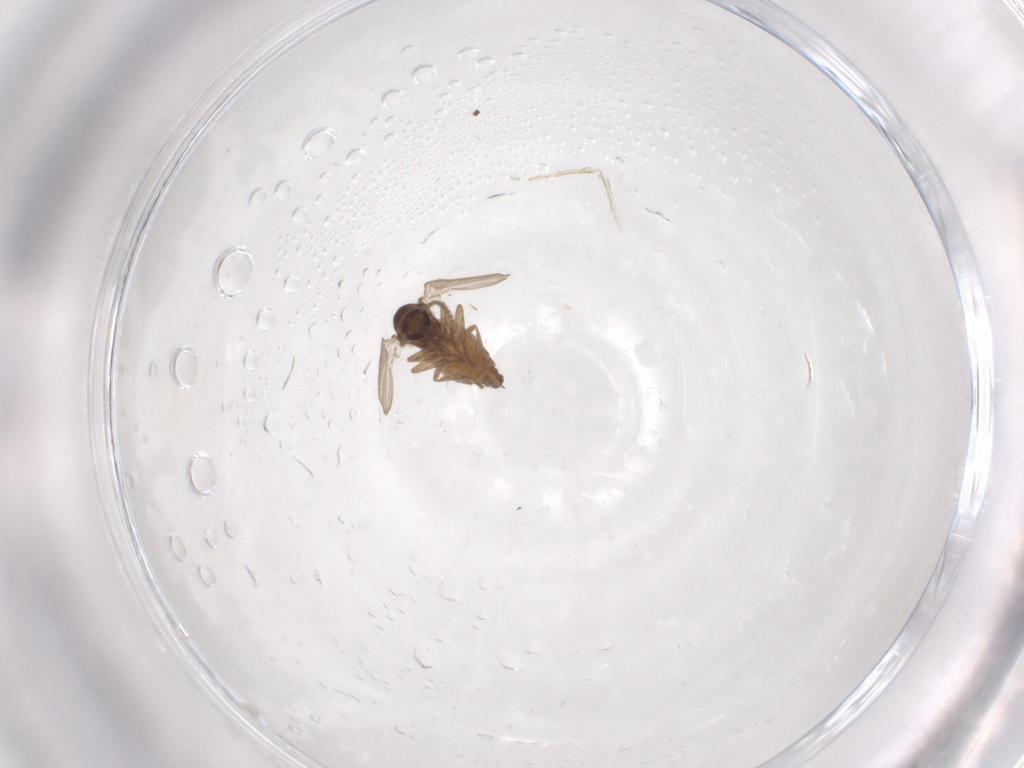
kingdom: Animalia
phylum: Arthropoda
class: Insecta
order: Diptera
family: Psychodidae
